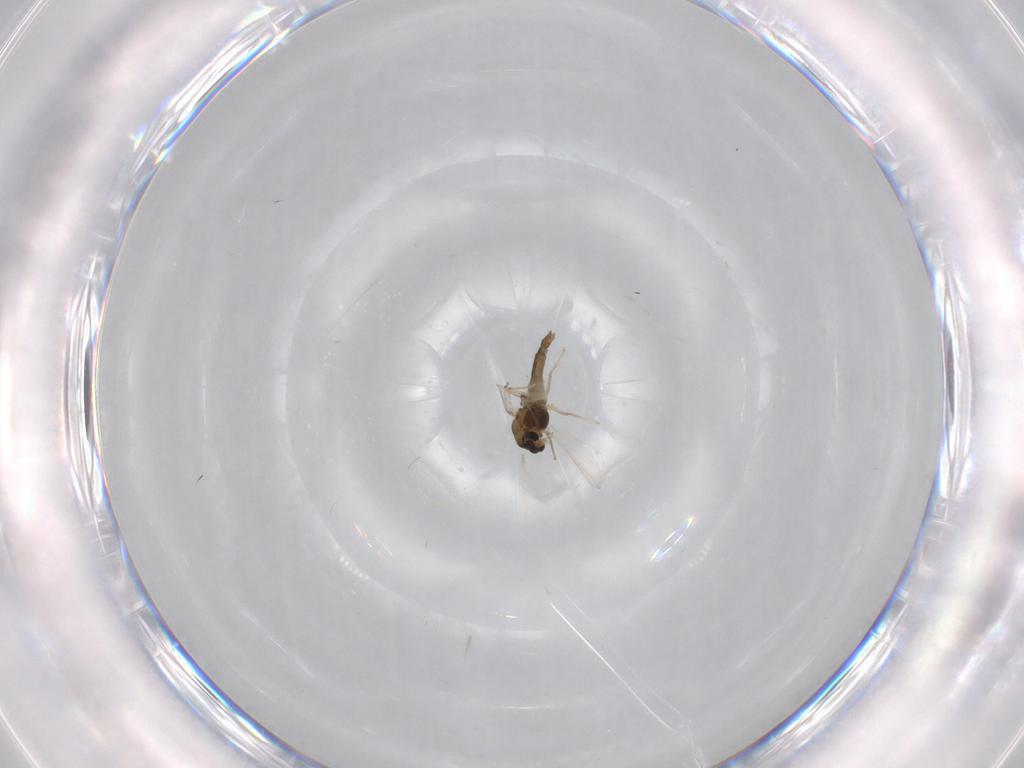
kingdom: Animalia
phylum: Arthropoda
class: Insecta
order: Diptera
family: Chironomidae
